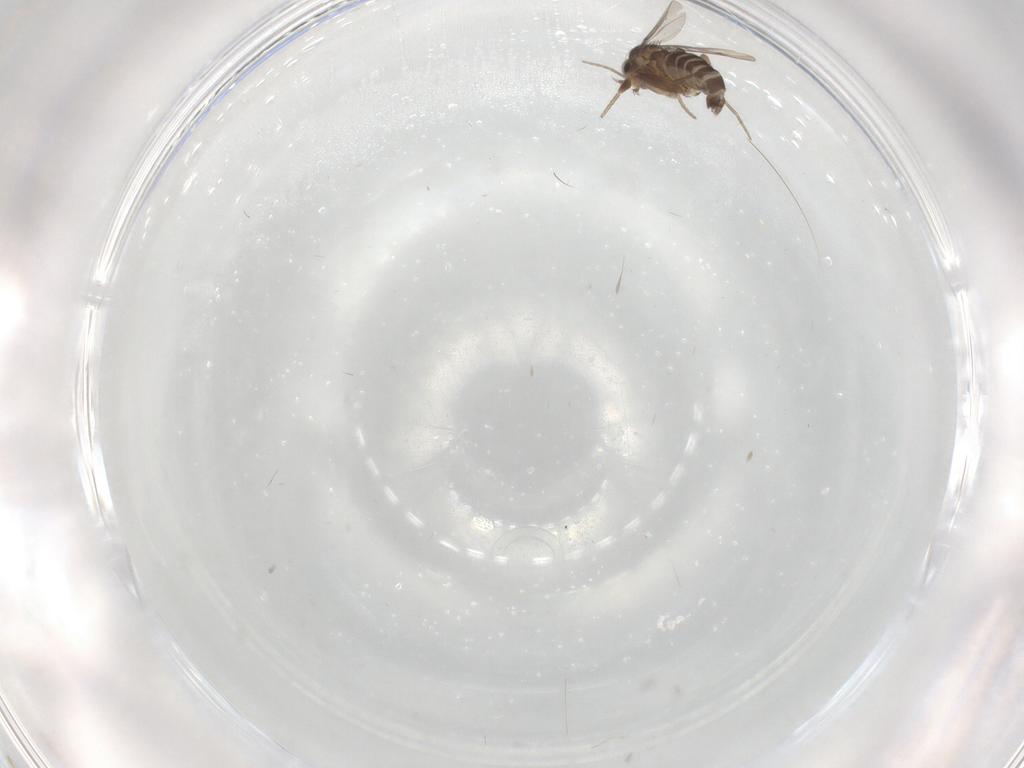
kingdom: Animalia
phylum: Arthropoda
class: Insecta
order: Diptera
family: Phoridae
